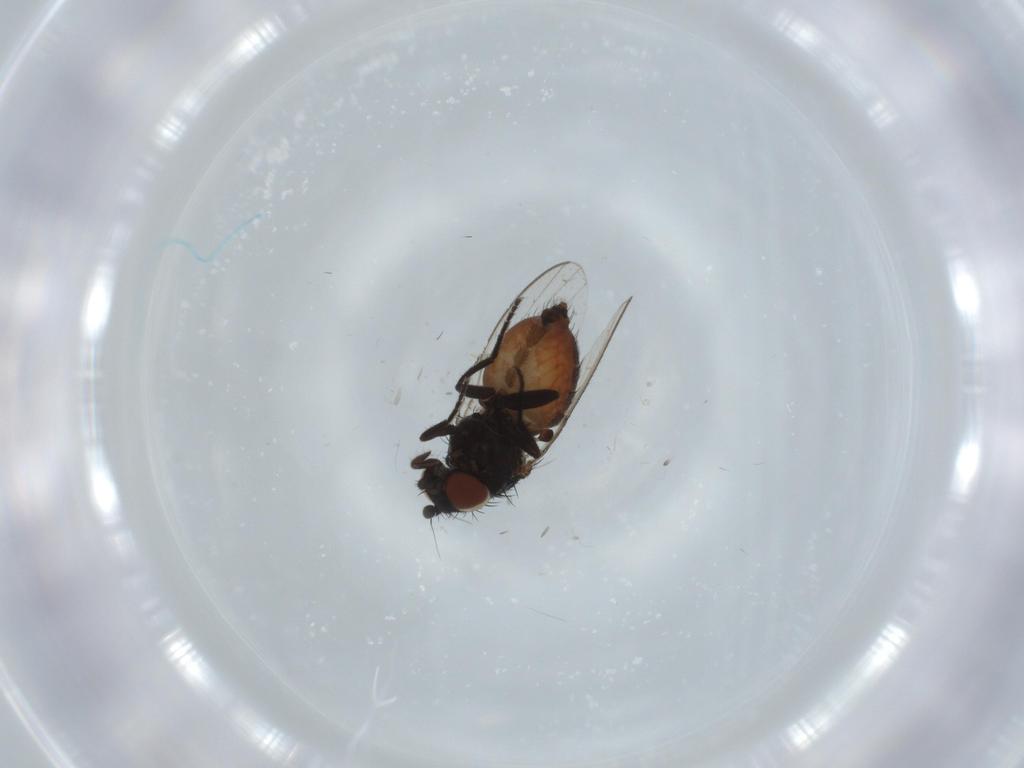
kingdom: Animalia
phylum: Arthropoda
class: Insecta
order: Diptera
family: Milichiidae
